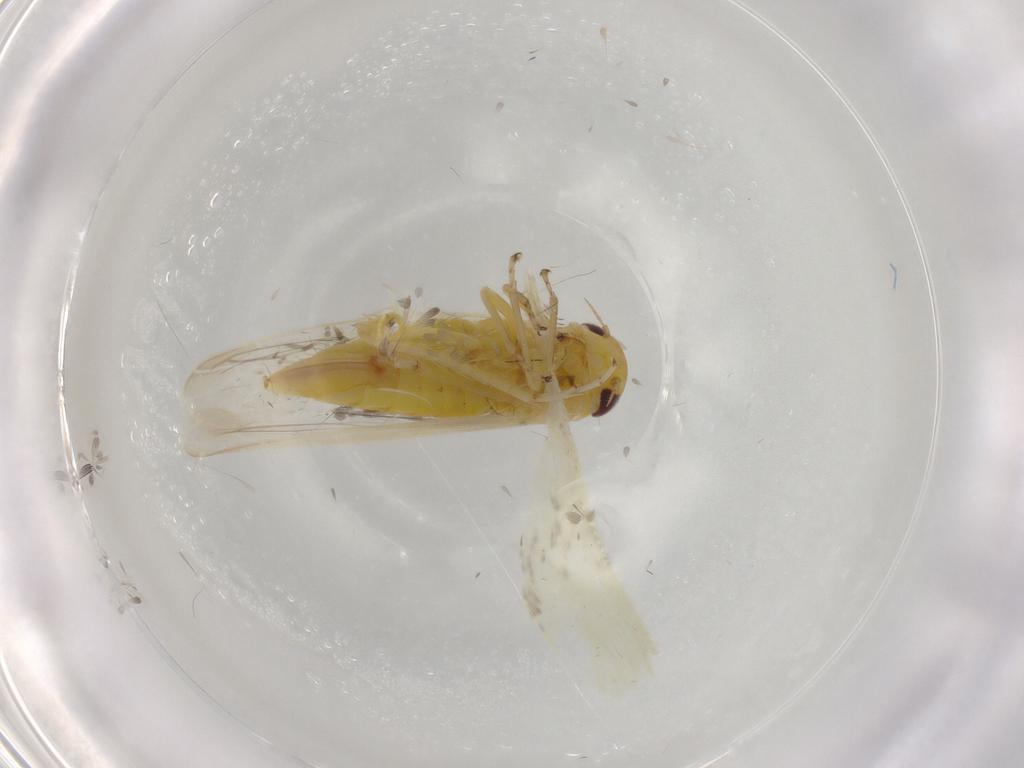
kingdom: Animalia
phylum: Arthropoda
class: Insecta
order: Hemiptera
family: Cicadellidae
